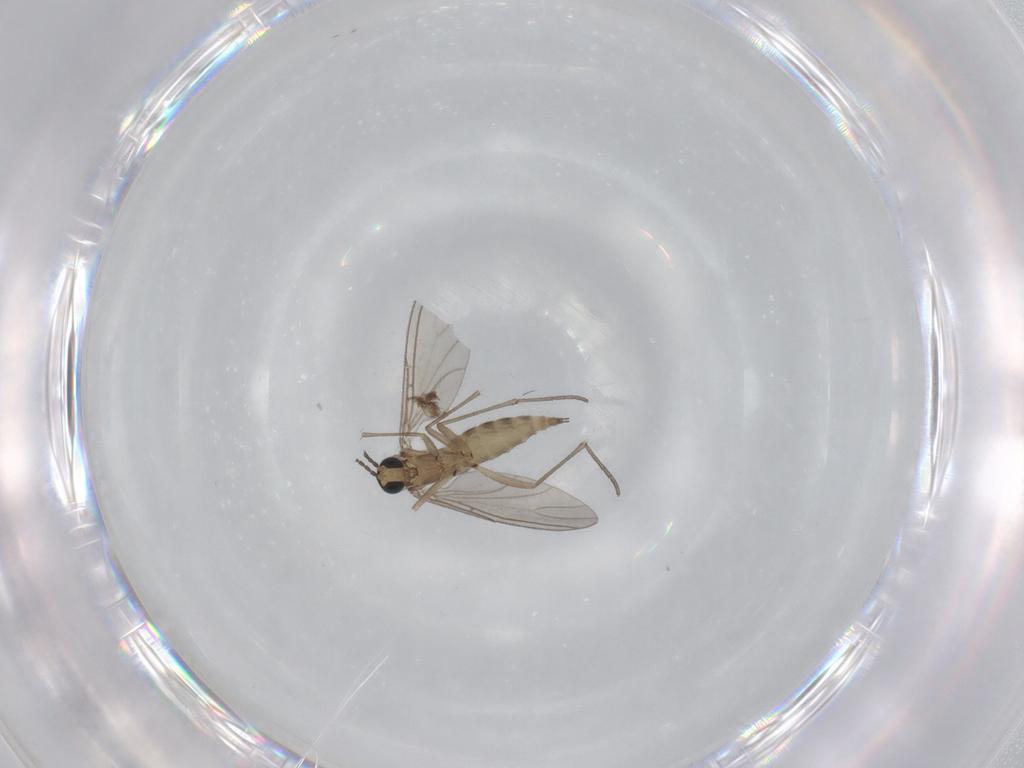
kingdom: Animalia
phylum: Arthropoda
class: Insecta
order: Diptera
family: Sciaridae
